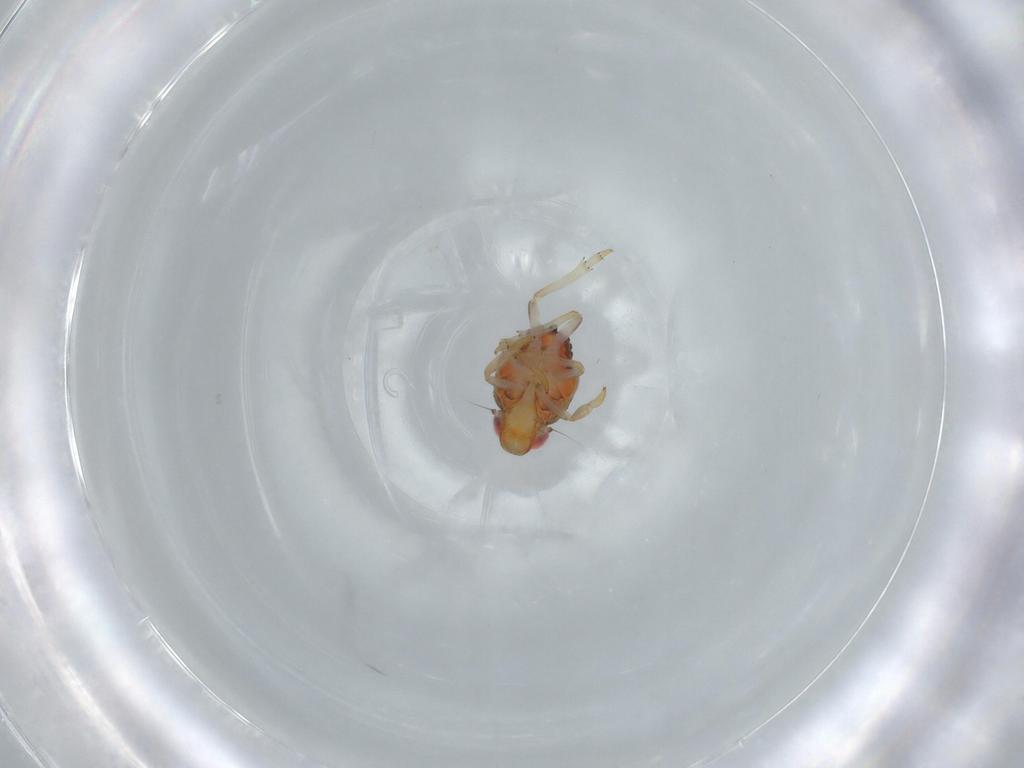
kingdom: Animalia
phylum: Arthropoda
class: Insecta
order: Hemiptera
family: Issidae
